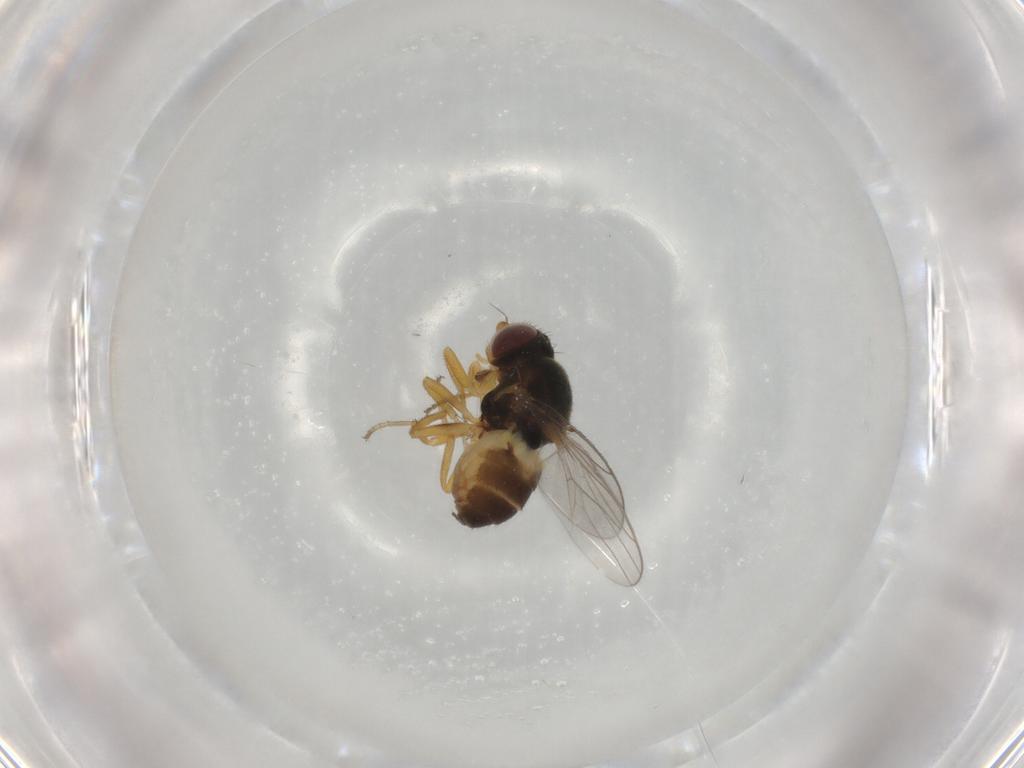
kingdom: Animalia
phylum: Arthropoda
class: Insecta
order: Diptera
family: Chloropidae
